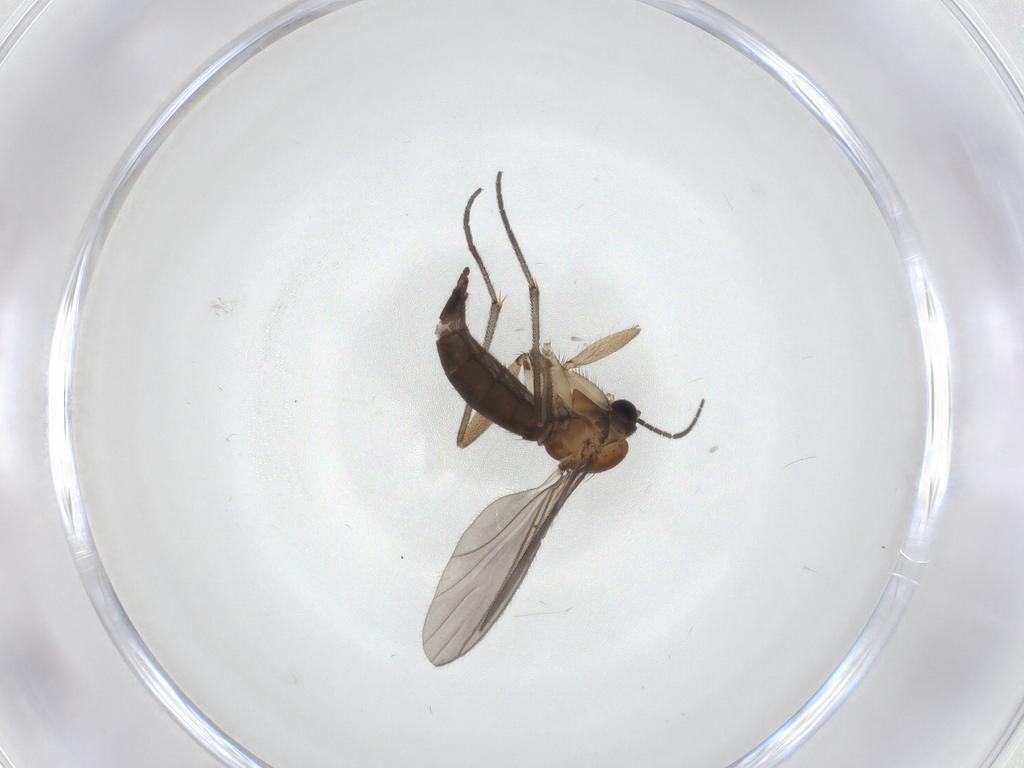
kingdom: Animalia
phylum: Arthropoda
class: Insecta
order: Diptera
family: Sciaridae
